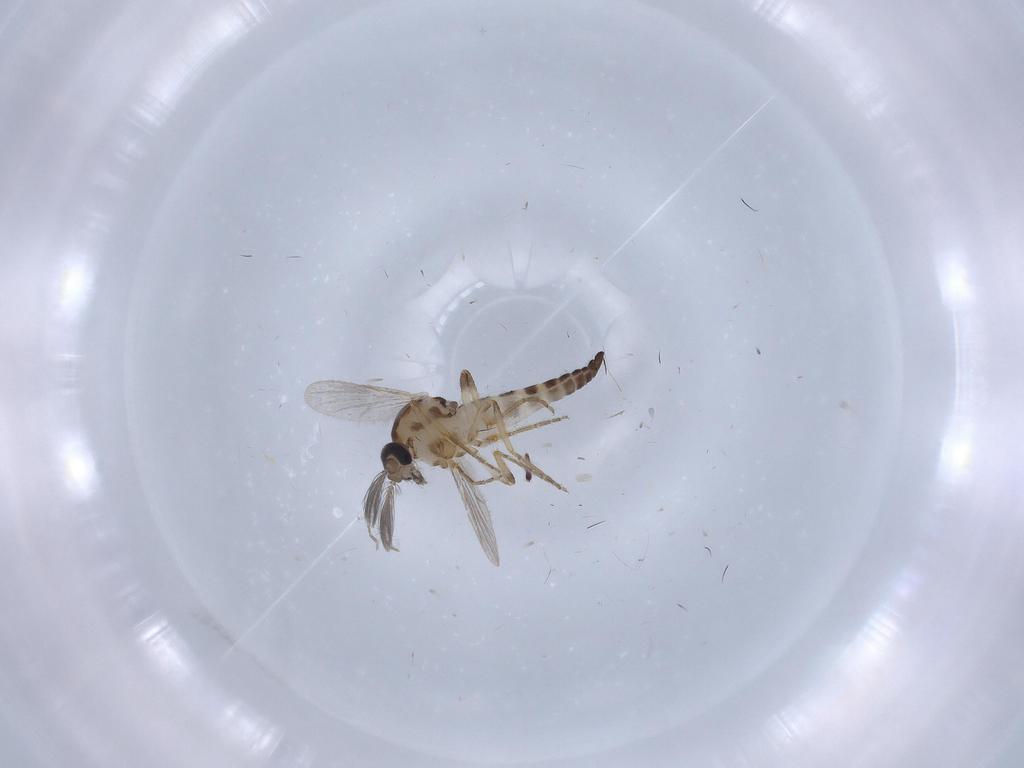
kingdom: Animalia
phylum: Arthropoda
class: Insecta
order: Diptera
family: Ceratopogonidae
